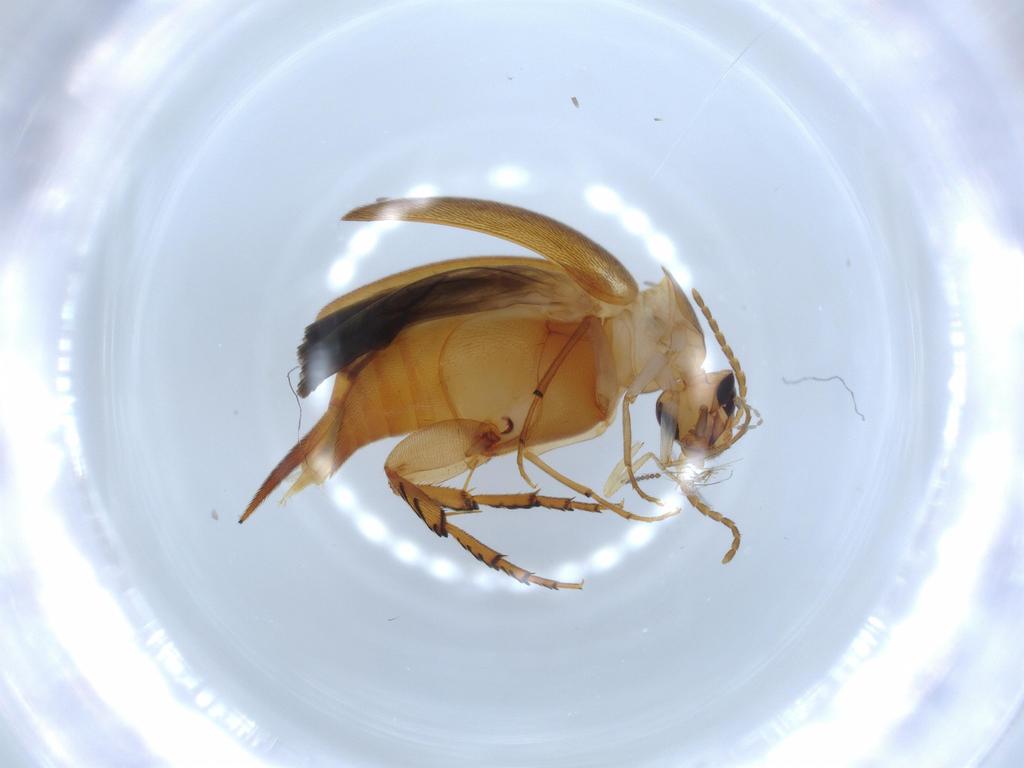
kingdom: Animalia
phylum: Arthropoda
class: Insecta
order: Coleoptera
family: Mordellidae
